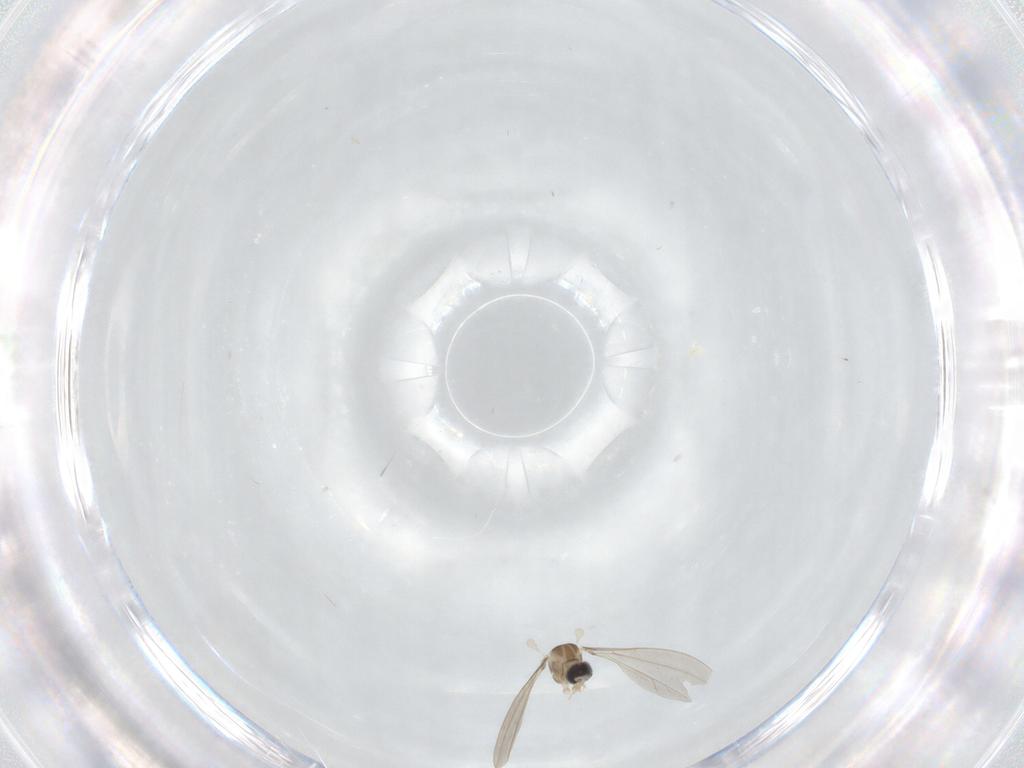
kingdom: Animalia
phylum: Arthropoda
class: Insecta
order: Diptera
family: Cecidomyiidae
